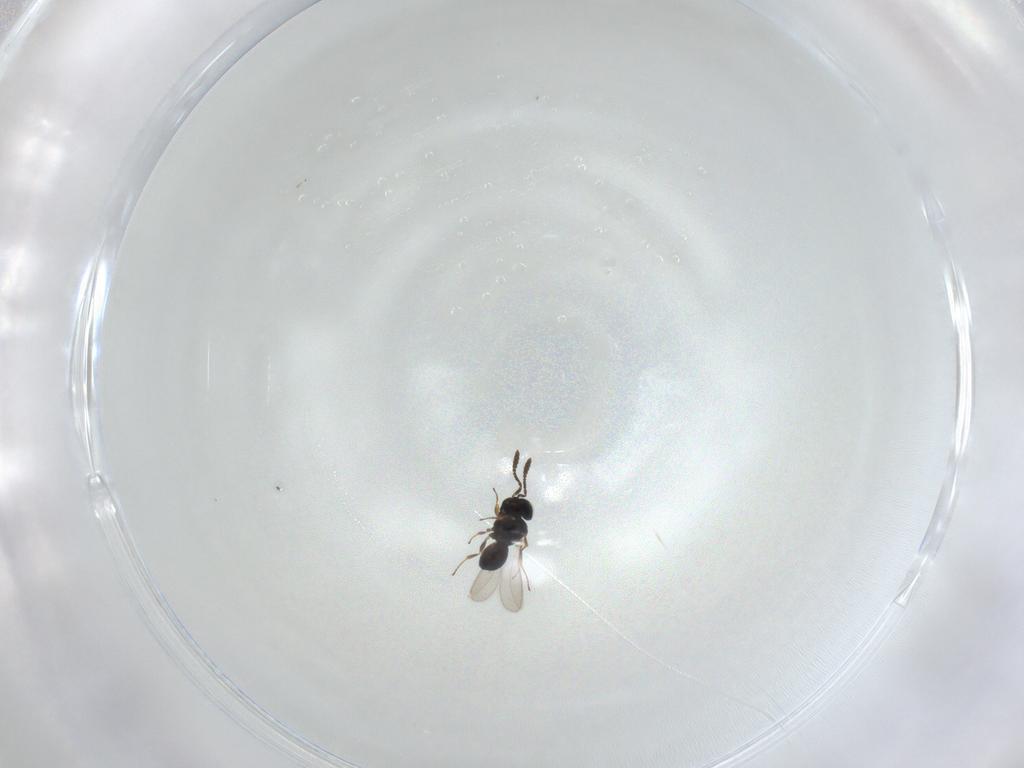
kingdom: Animalia
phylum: Arthropoda
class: Insecta
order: Hymenoptera
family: Scelionidae
